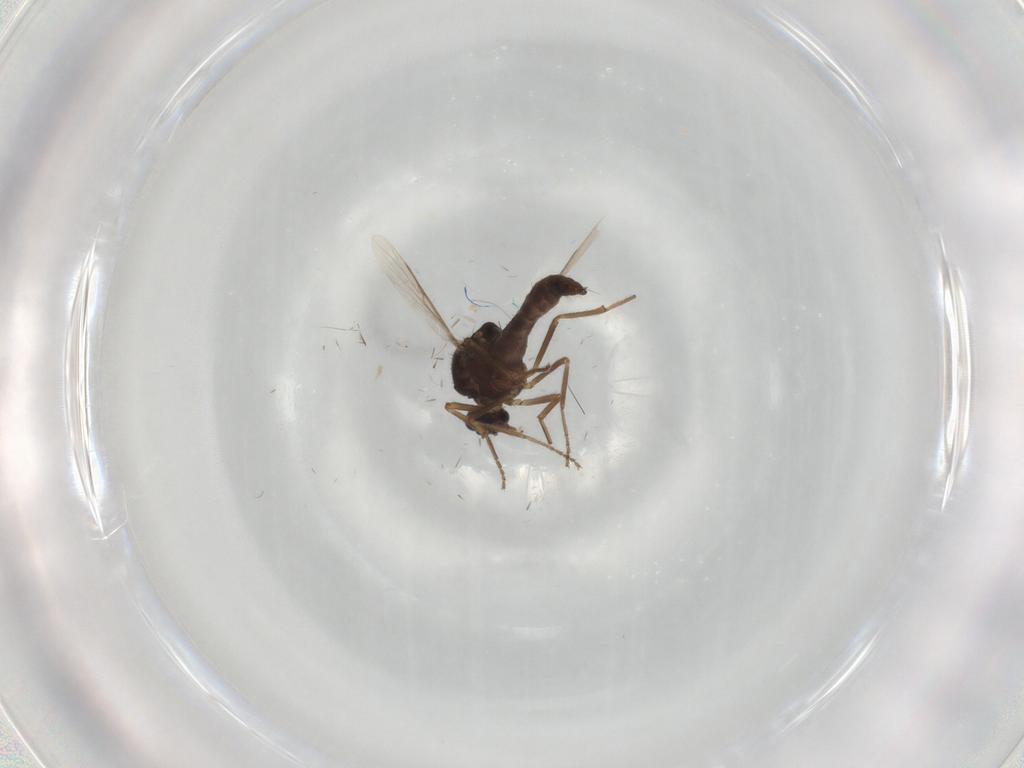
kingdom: Animalia
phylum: Arthropoda
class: Insecta
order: Diptera
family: Ceratopogonidae
